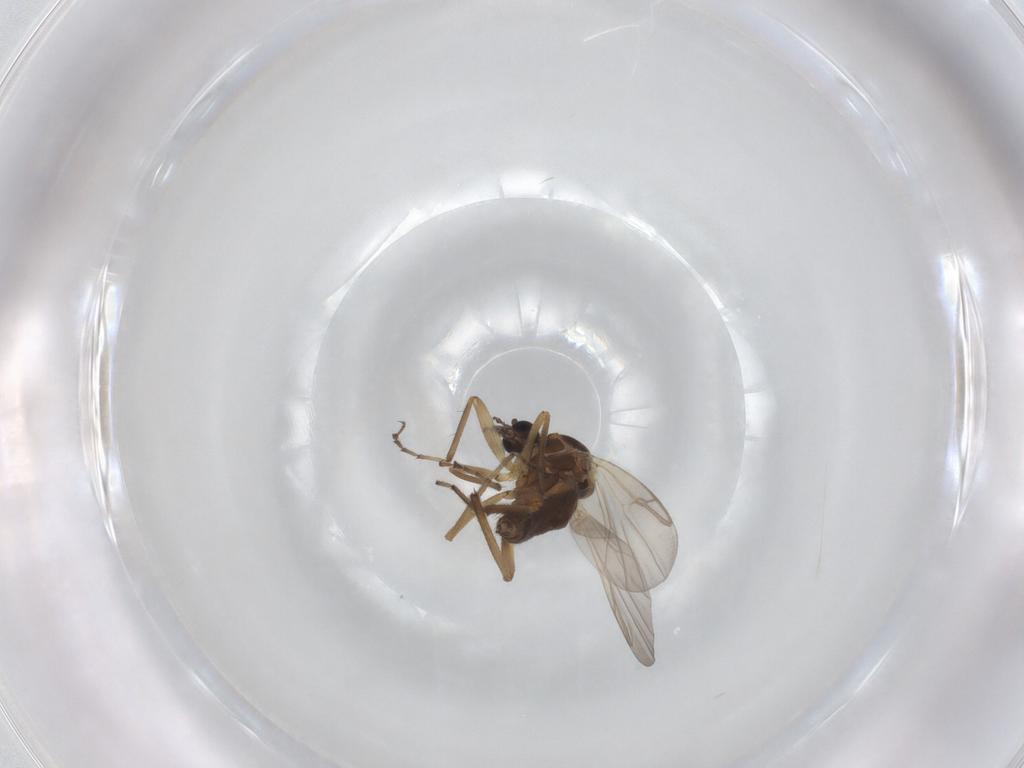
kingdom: Animalia
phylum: Arthropoda
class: Insecta
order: Diptera
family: Ceratopogonidae
